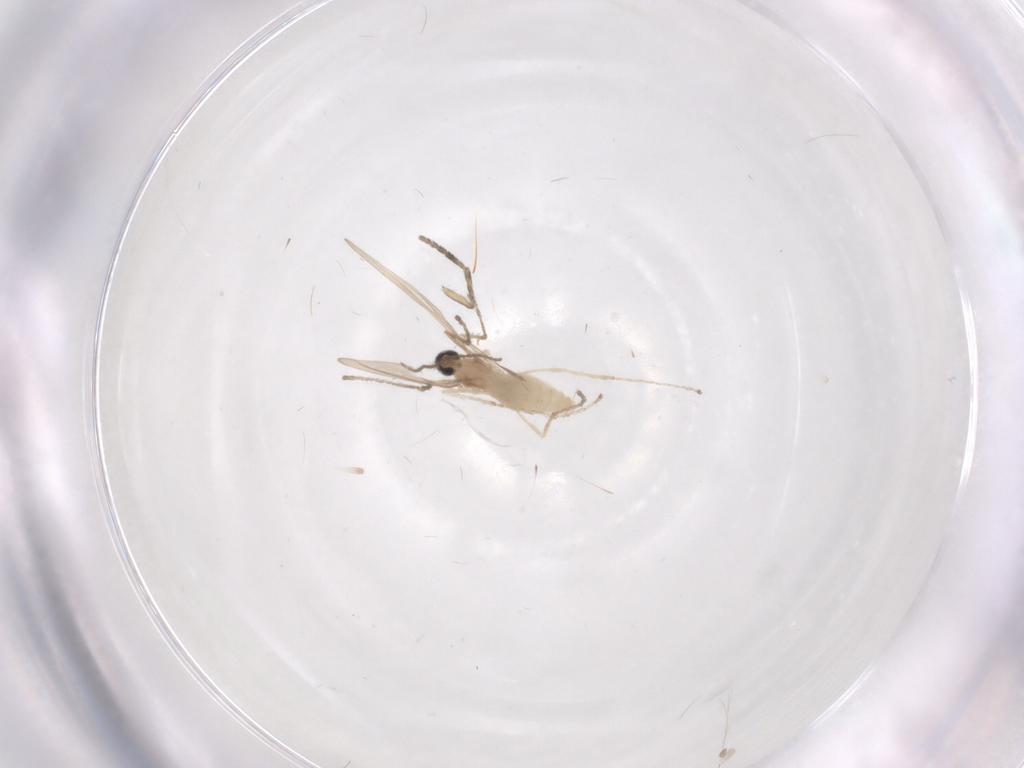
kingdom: Animalia
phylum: Arthropoda
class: Insecta
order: Diptera
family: Cecidomyiidae
